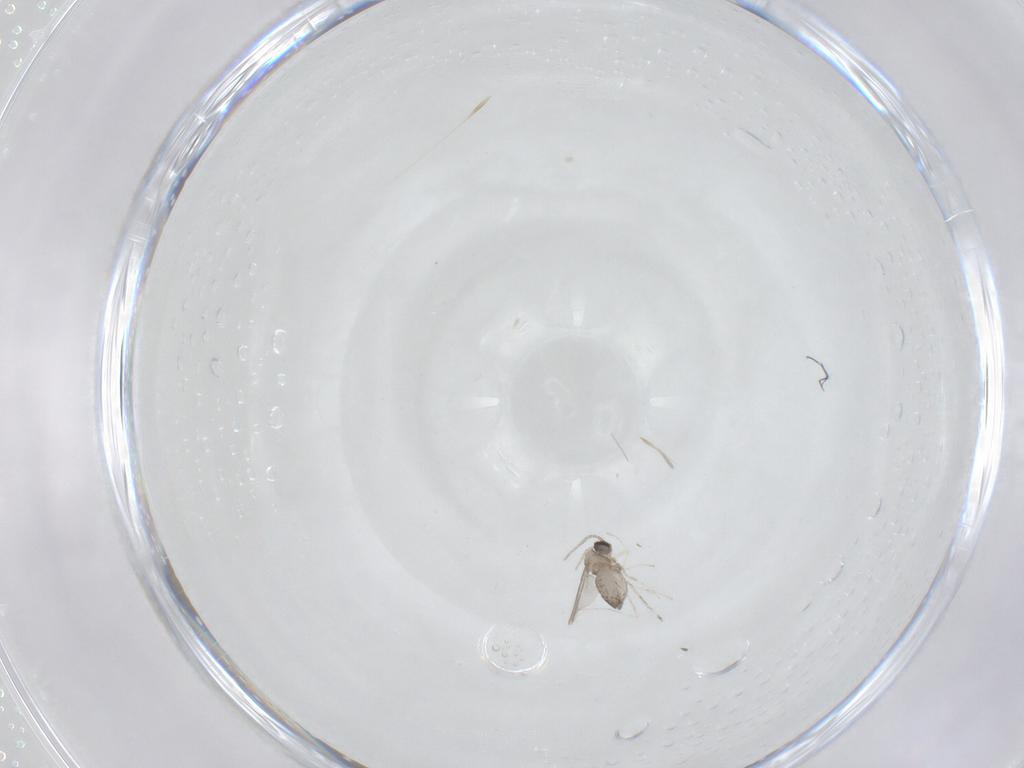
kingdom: Animalia
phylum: Arthropoda
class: Insecta
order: Diptera
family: Cecidomyiidae
